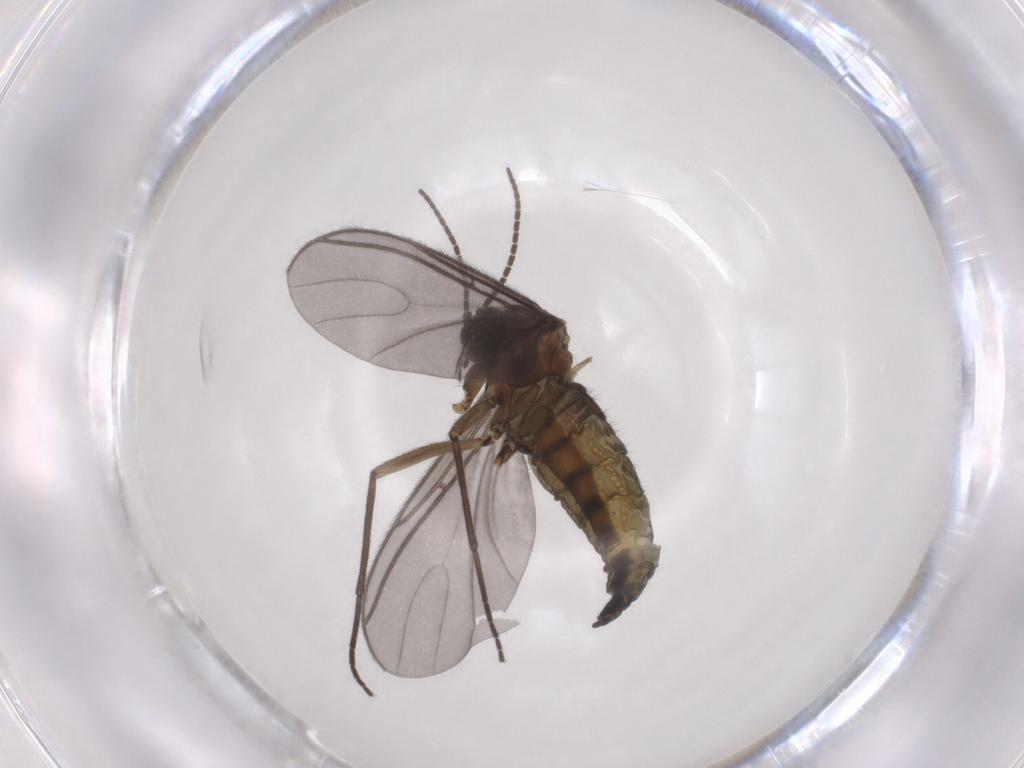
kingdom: Animalia
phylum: Arthropoda
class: Insecta
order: Diptera
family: Sciaridae
